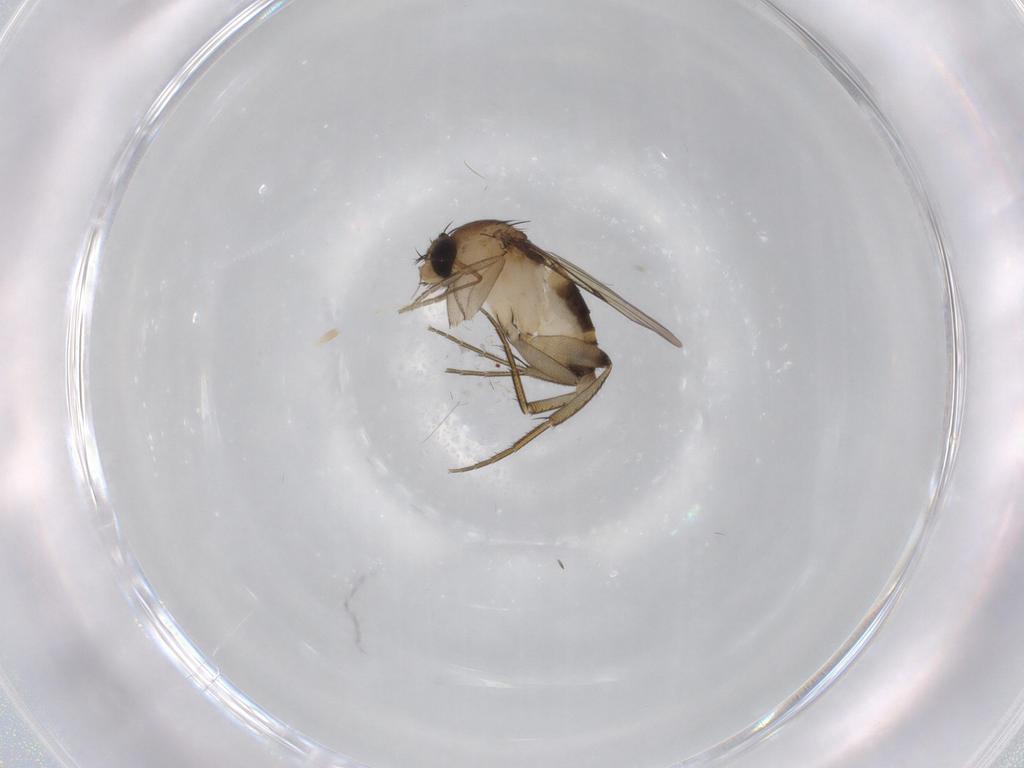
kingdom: Animalia
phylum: Arthropoda
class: Insecta
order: Diptera
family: Phoridae
